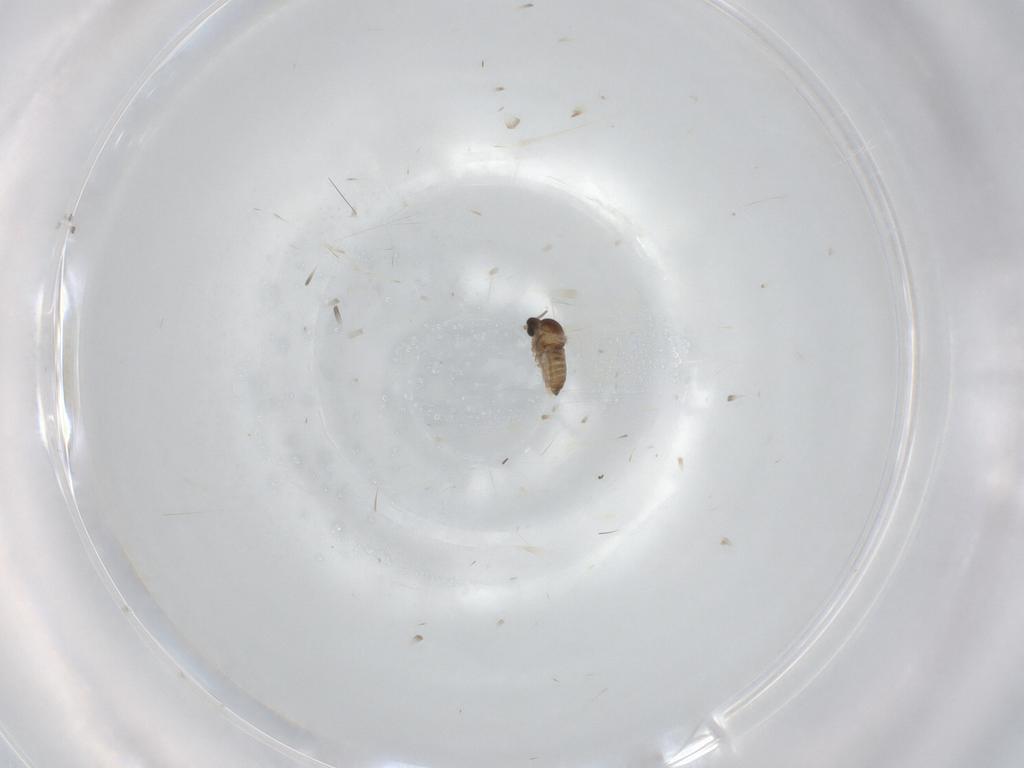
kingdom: Animalia
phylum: Arthropoda
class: Insecta
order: Diptera
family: Cecidomyiidae
